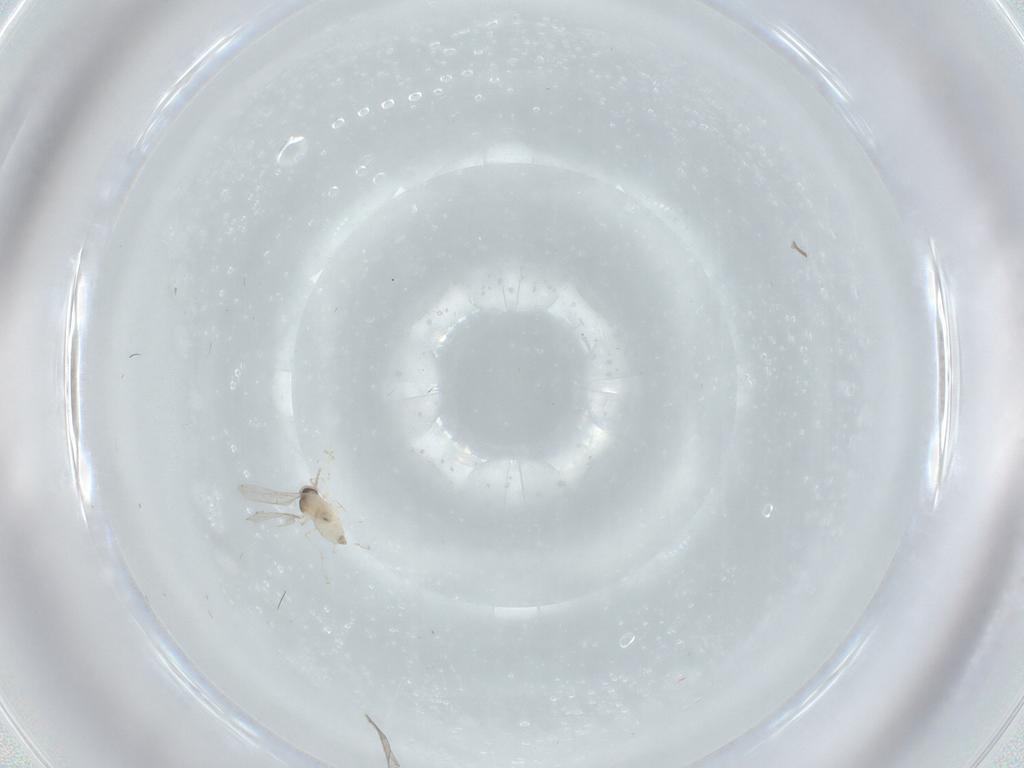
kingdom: Animalia
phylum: Arthropoda
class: Insecta
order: Diptera
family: Chironomidae
